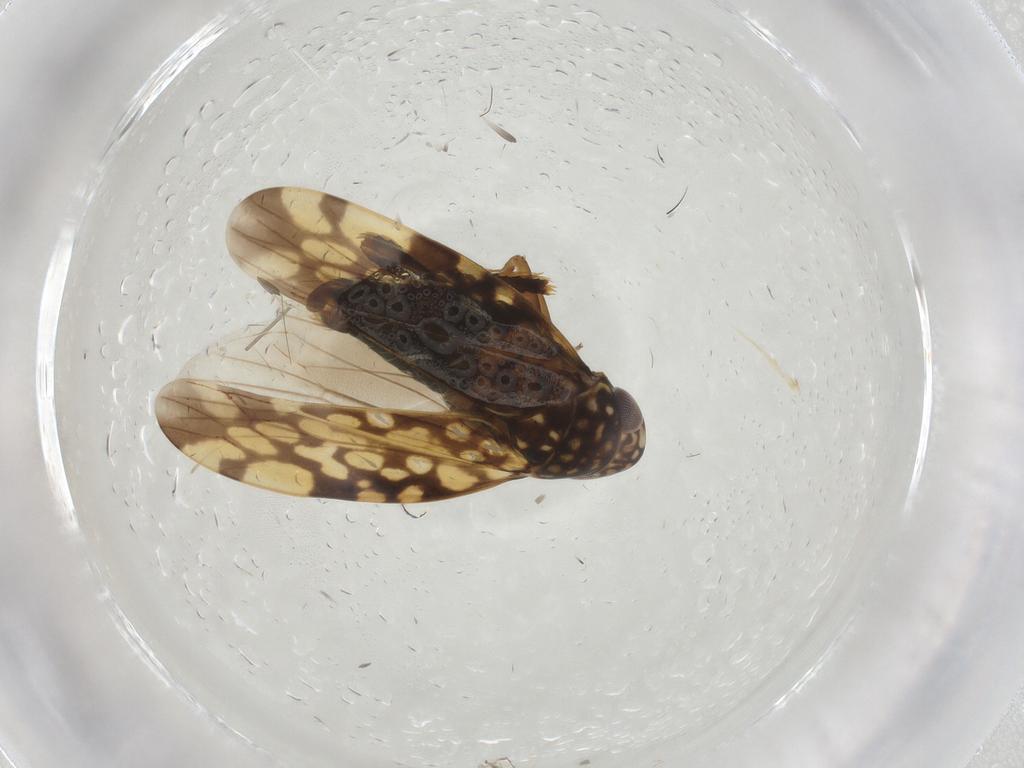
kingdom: Animalia
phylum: Arthropoda
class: Insecta
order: Hemiptera
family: Cicadellidae
